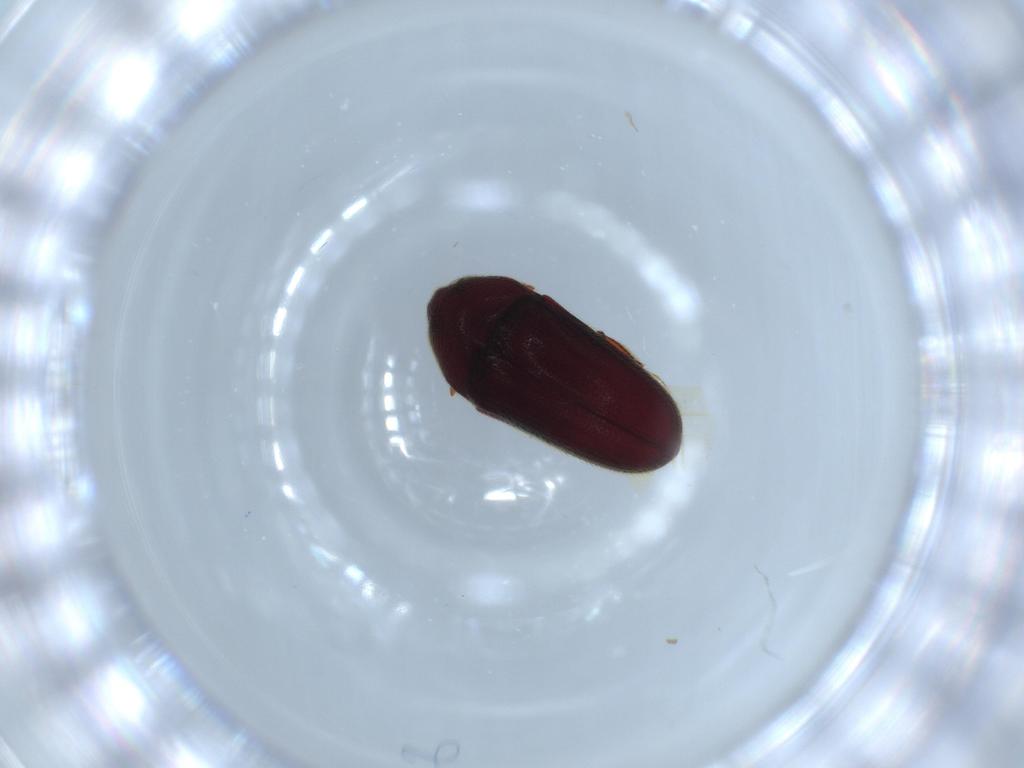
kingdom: Animalia
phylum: Arthropoda
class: Insecta
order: Coleoptera
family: Throscidae
